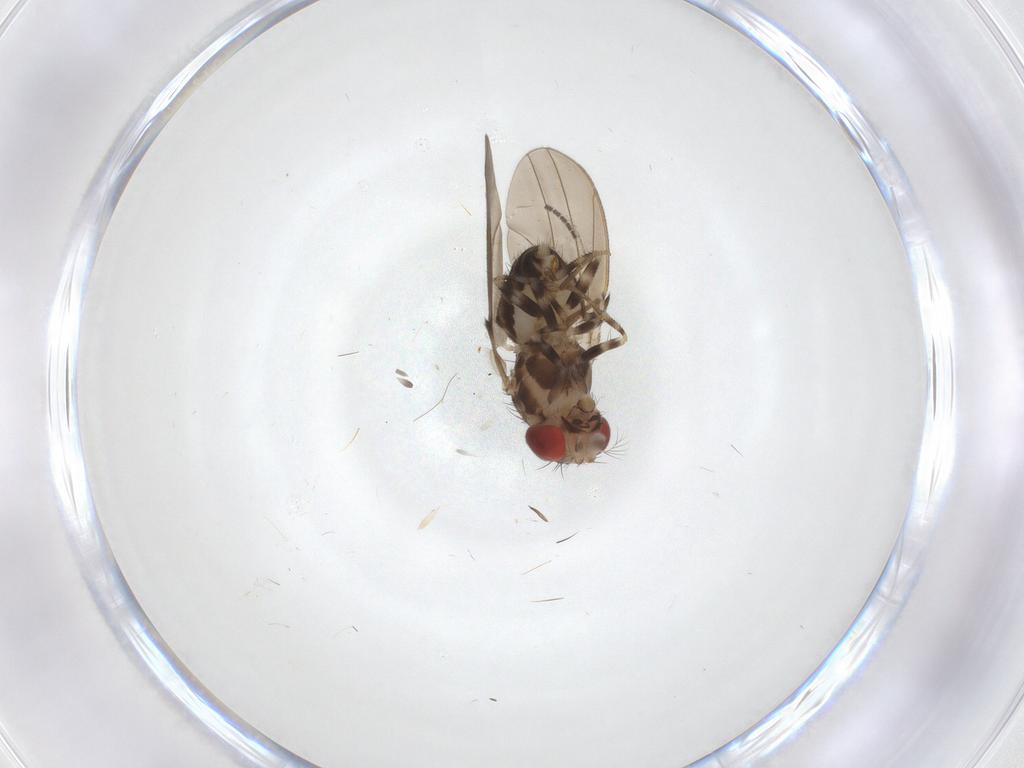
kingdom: Animalia
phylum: Arthropoda
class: Insecta
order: Diptera
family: Drosophilidae
